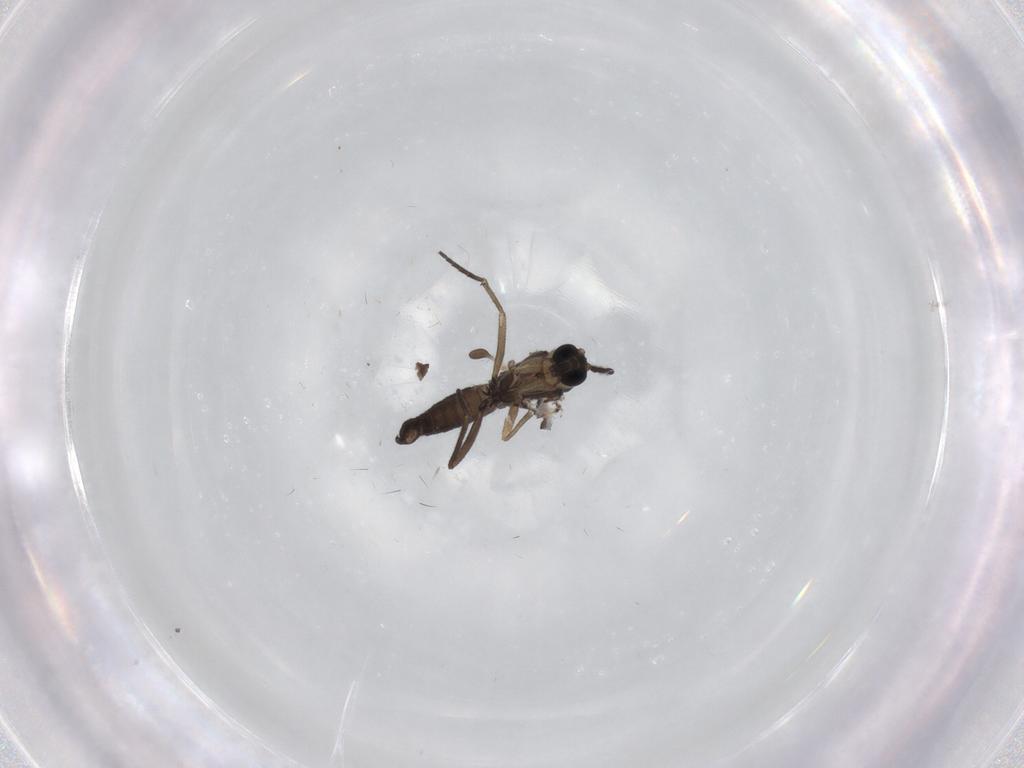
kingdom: Animalia
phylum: Arthropoda
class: Insecta
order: Diptera
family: Sciaridae
